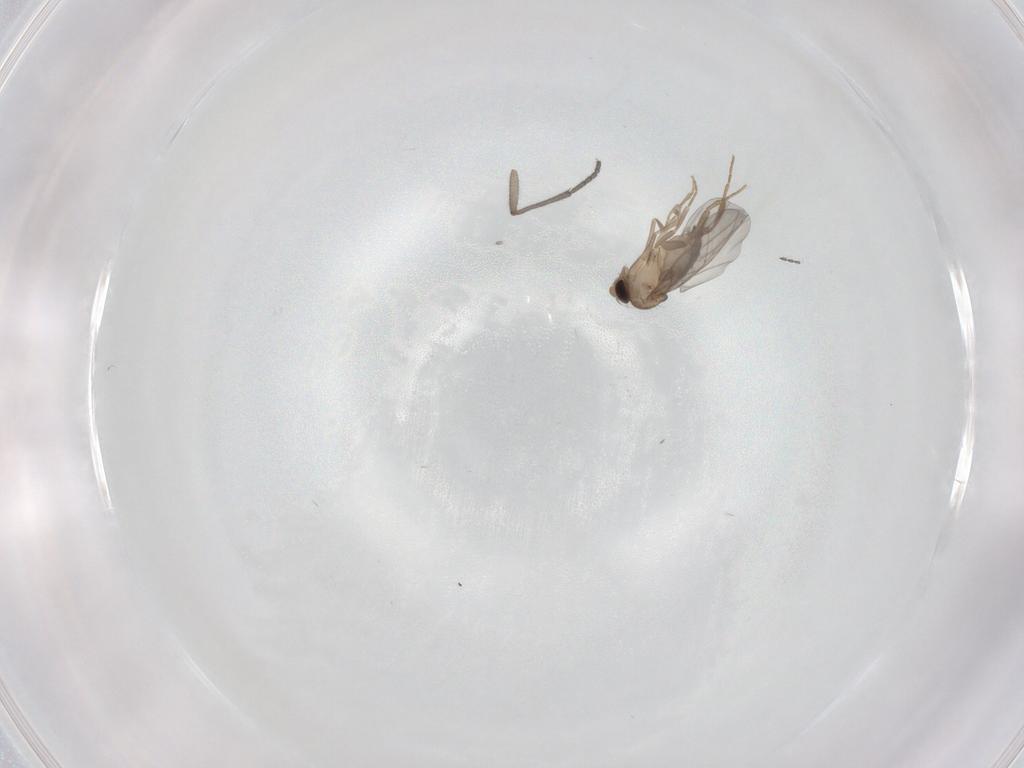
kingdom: Animalia
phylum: Arthropoda
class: Insecta
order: Diptera
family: Sciaridae
